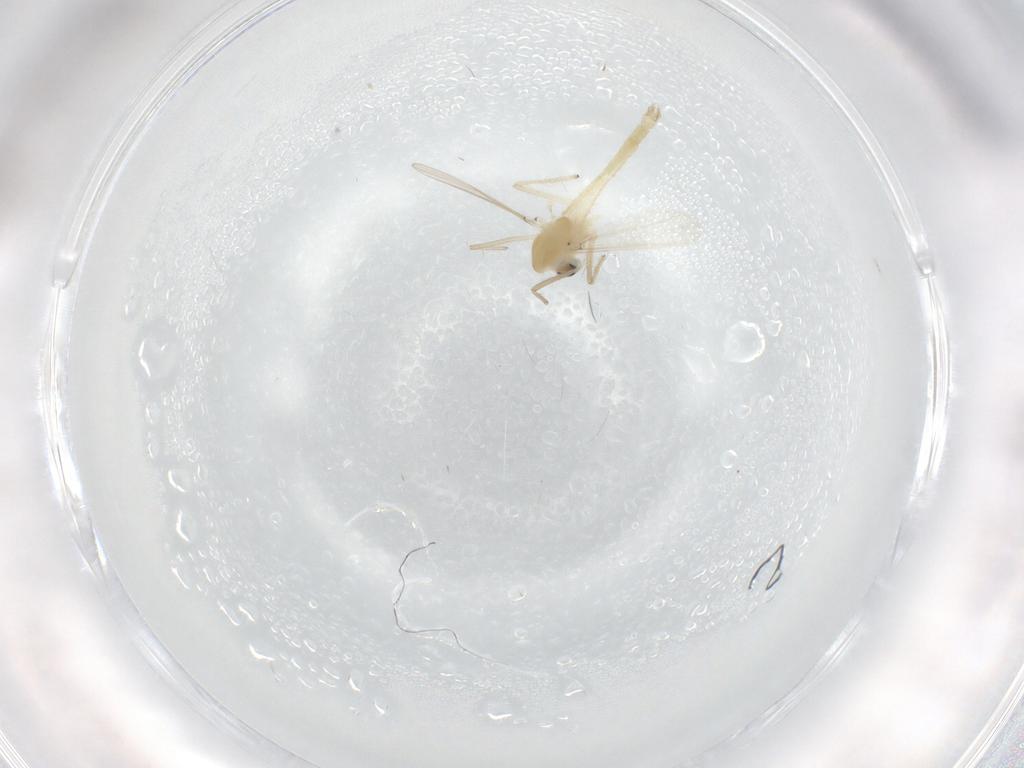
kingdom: Animalia
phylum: Arthropoda
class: Insecta
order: Diptera
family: Chironomidae
